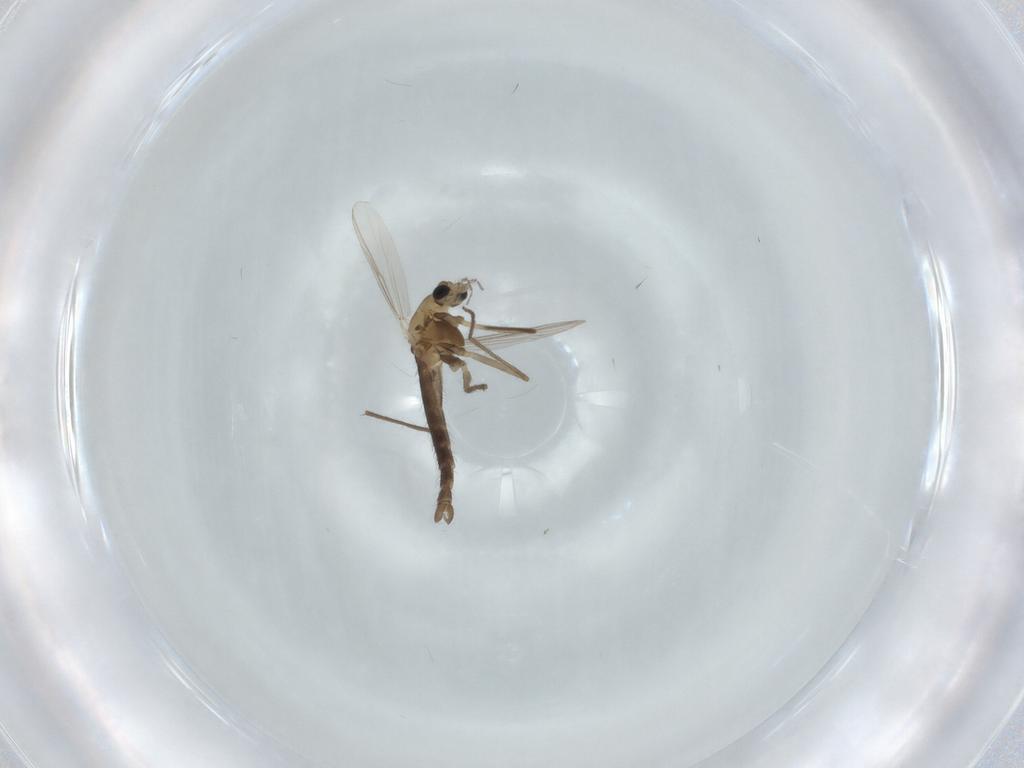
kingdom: Animalia
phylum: Arthropoda
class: Insecta
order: Diptera
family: Chironomidae
